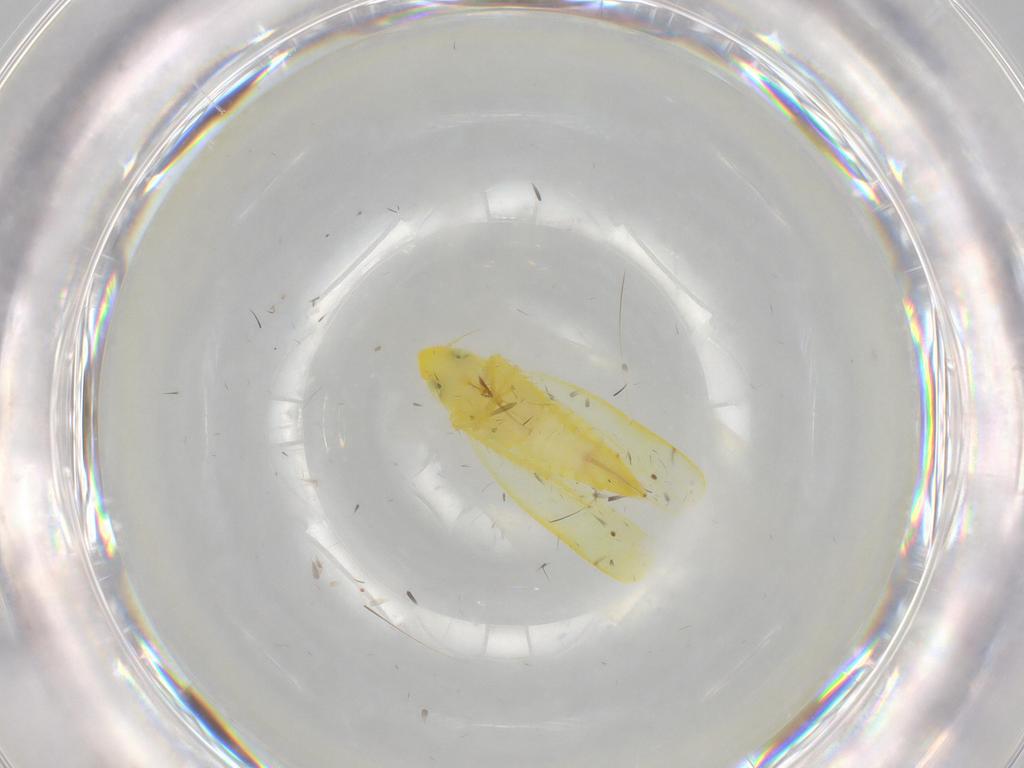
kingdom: Animalia
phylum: Arthropoda
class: Insecta
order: Hemiptera
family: Cicadellidae
